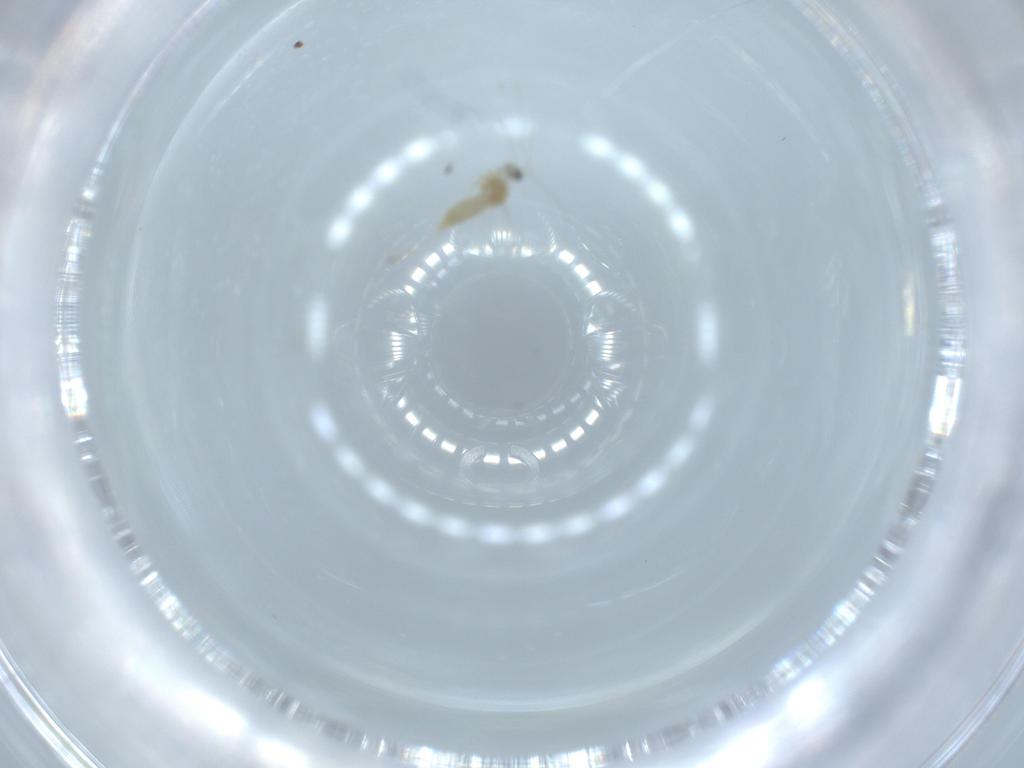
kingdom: Animalia
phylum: Arthropoda
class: Insecta
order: Diptera
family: Cecidomyiidae
